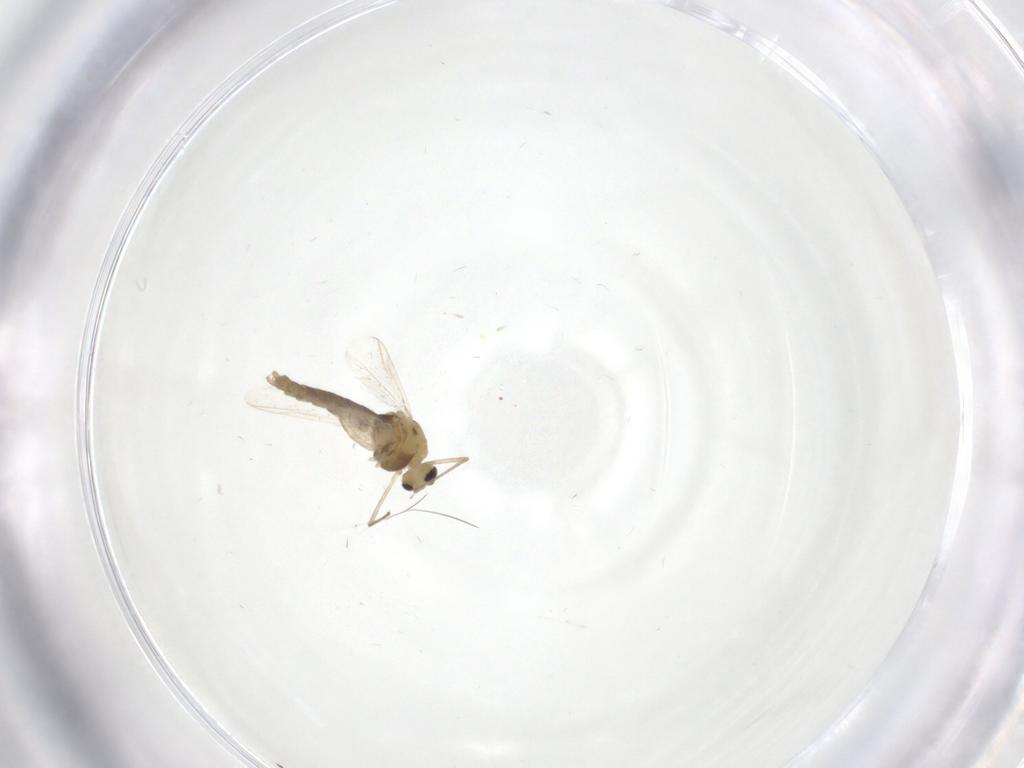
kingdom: Animalia
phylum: Arthropoda
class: Insecta
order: Diptera
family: Chironomidae
